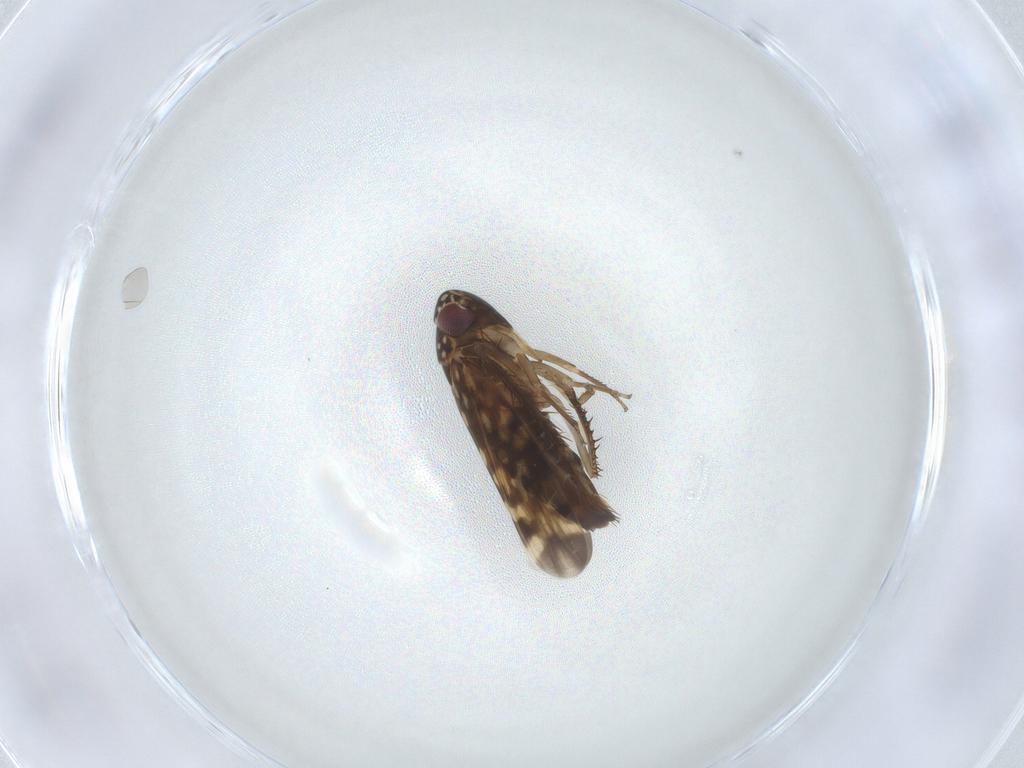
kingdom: Animalia
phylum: Arthropoda
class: Insecta
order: Hemiptera
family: Cicadellidae
